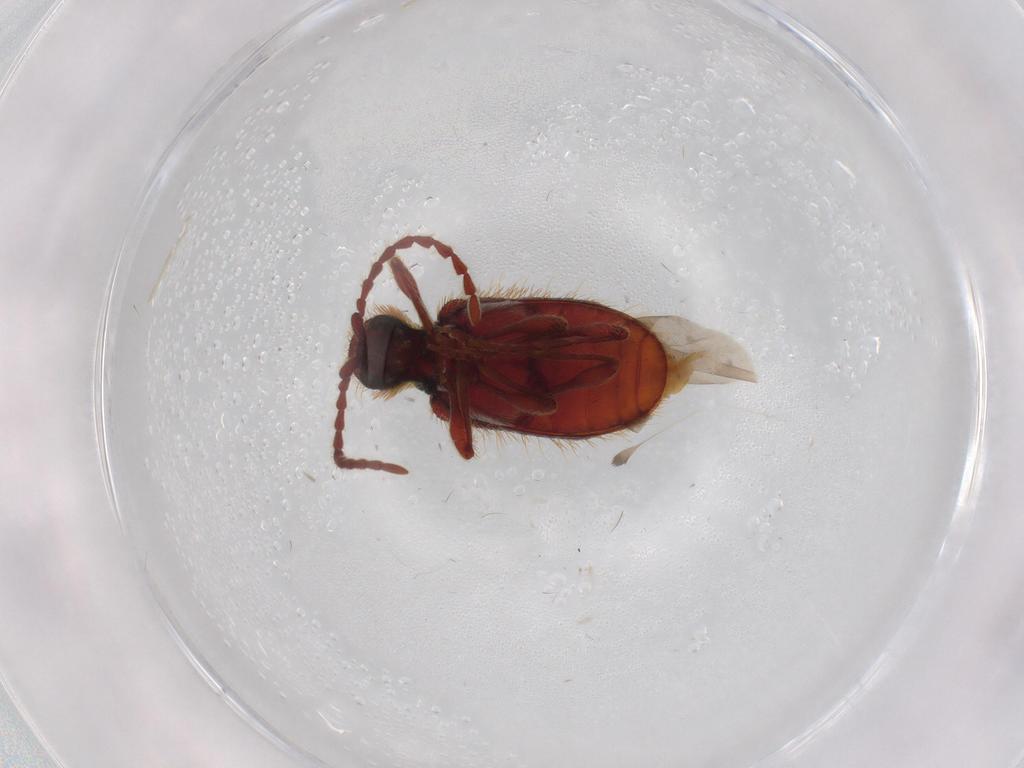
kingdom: Animalia
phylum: Arthropoda
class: Insecta
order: Coleoptera
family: Ptinidae
